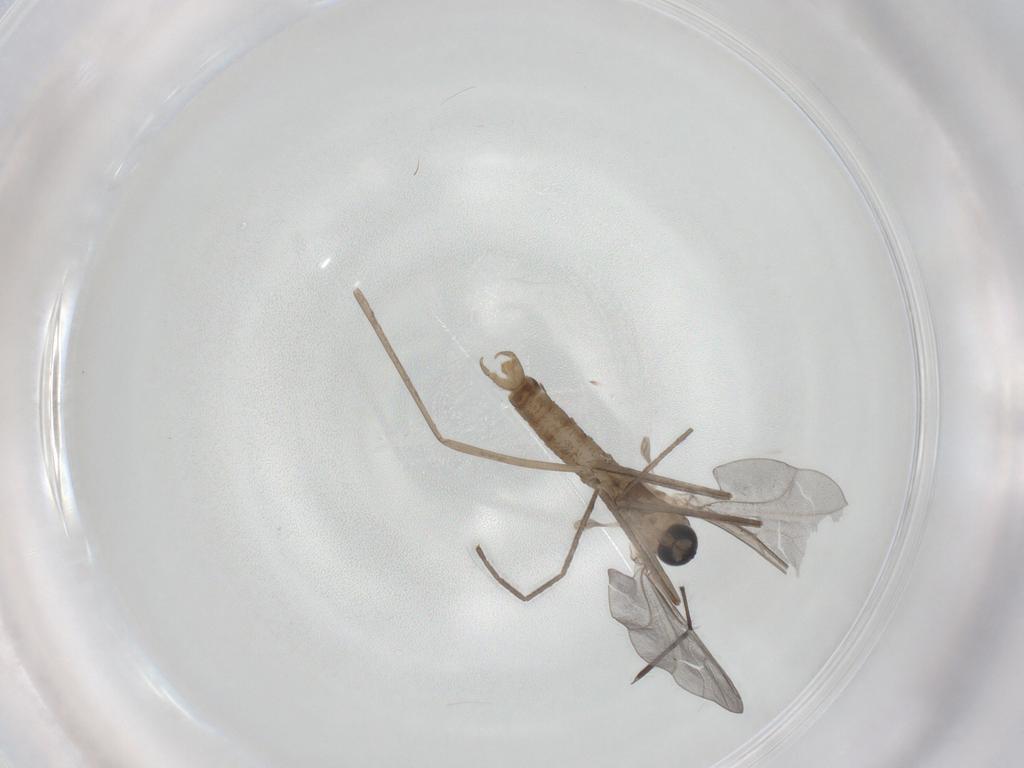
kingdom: Animalia
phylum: Arthropoda
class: Insecta
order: Diptera
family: Cecidomyiidae
